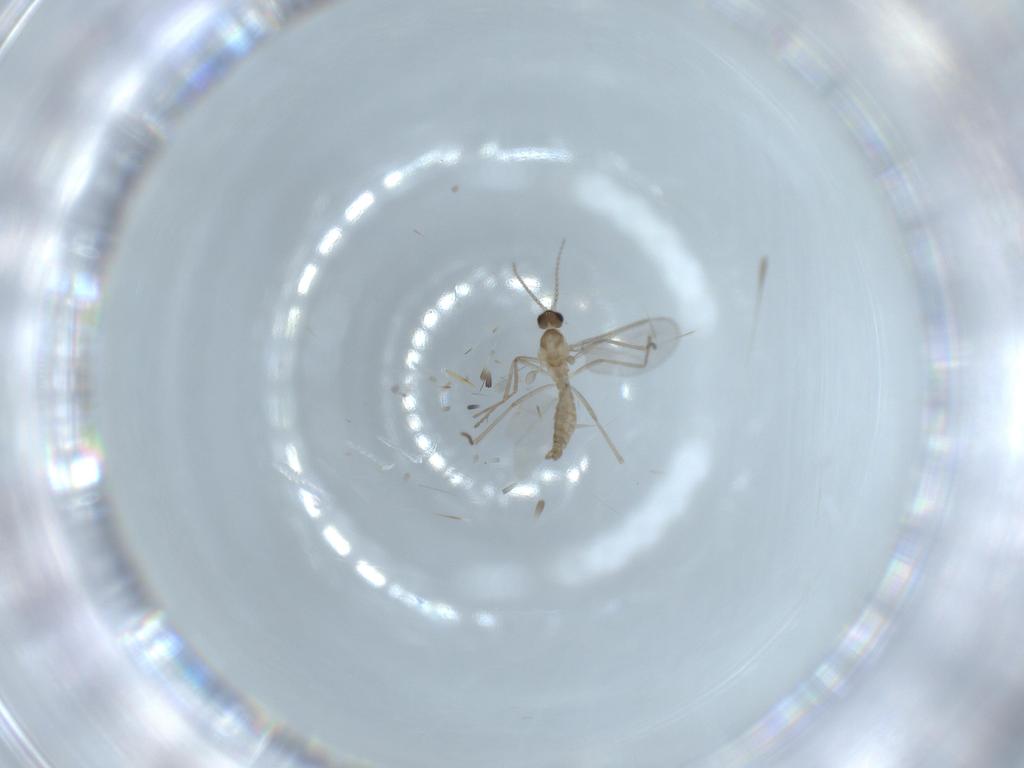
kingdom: Animalia
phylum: Arthropoda
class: Insecta
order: Diptera
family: Cecidomyiidae
